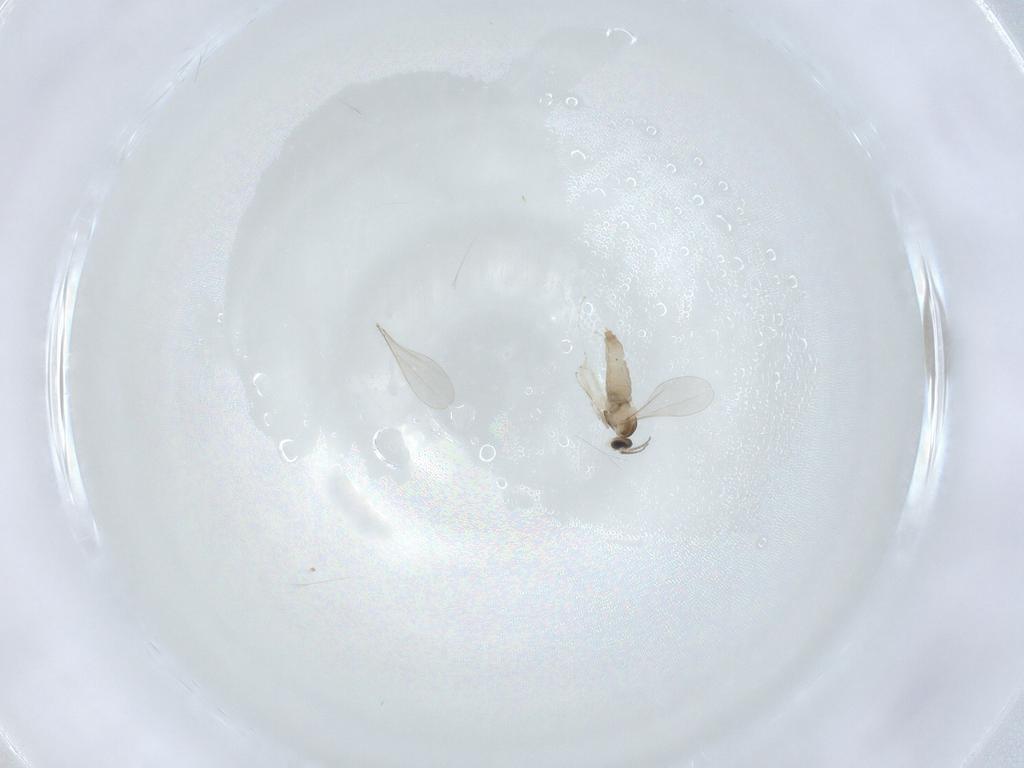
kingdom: Animalia
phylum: Arthropoda
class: Insecta
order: Diptera
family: Cecidomyiidae
